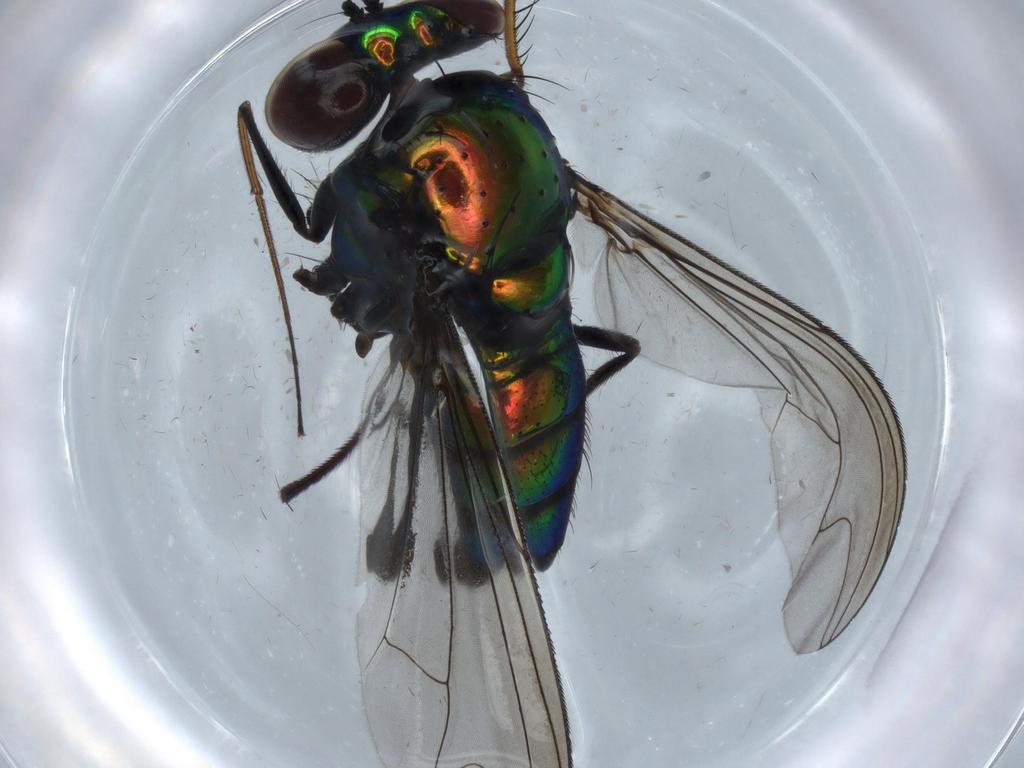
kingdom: Animalia
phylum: Arthropoda
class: Insecta
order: Diptera
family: Dolichopodidae
